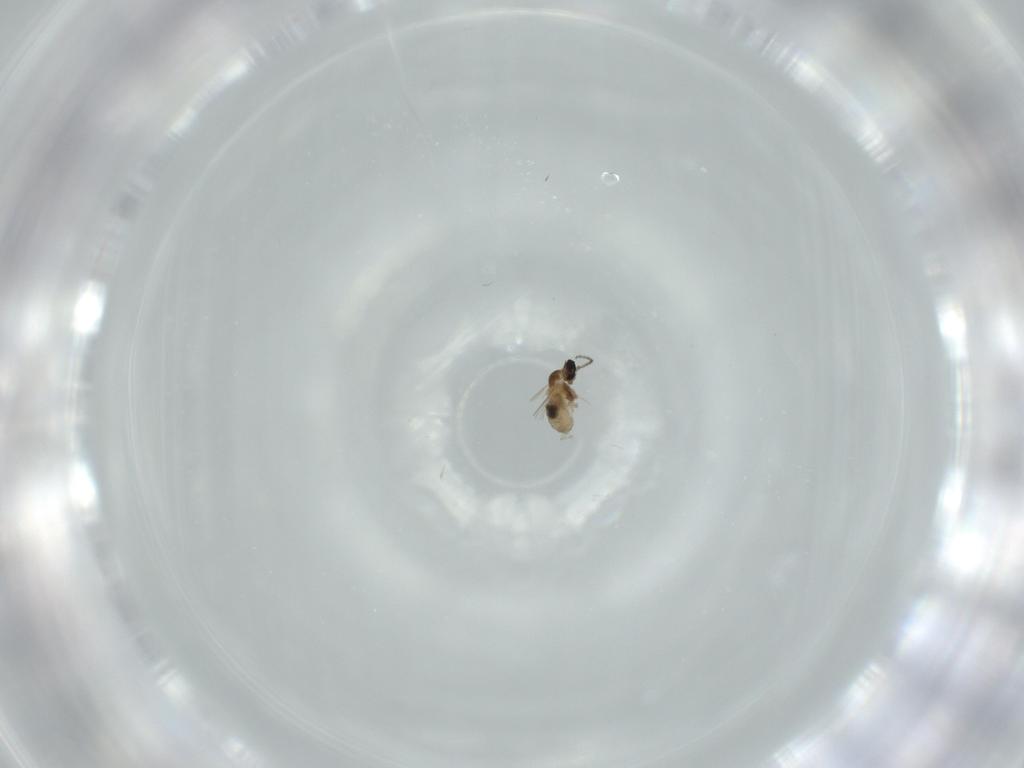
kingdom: Animalia
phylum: Arthropoda
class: Insecta
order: Diptera
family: Cecidomyiidae
